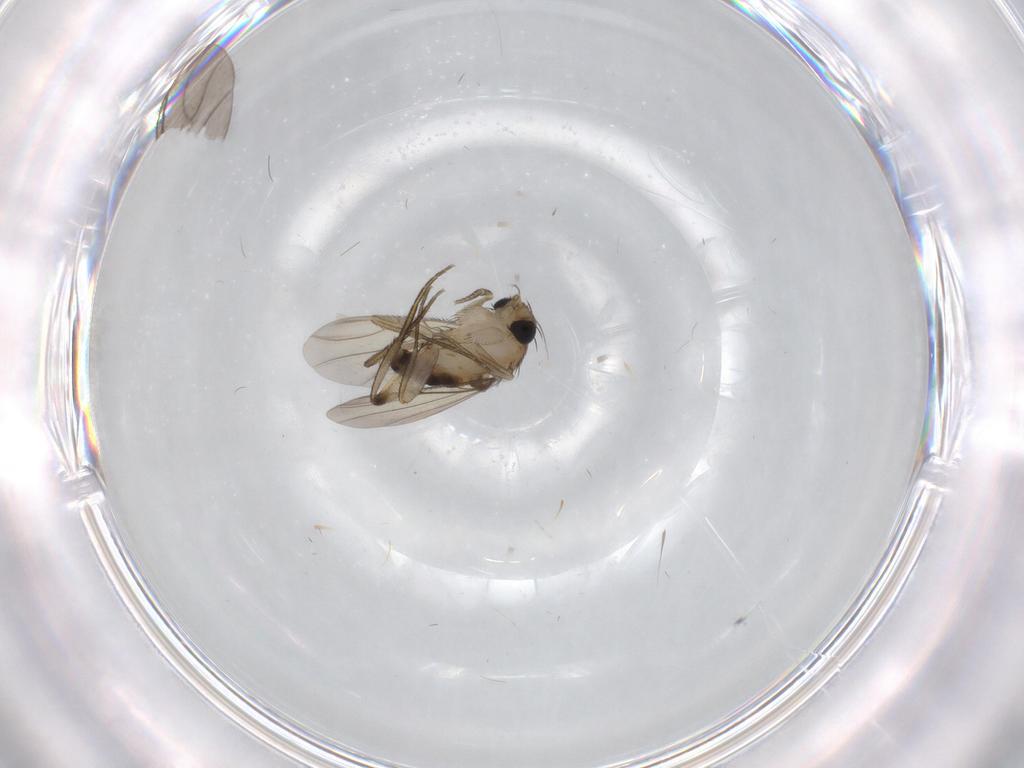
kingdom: Animalia
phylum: Arthropoda
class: Insecta
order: Diptera
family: Phoridae
